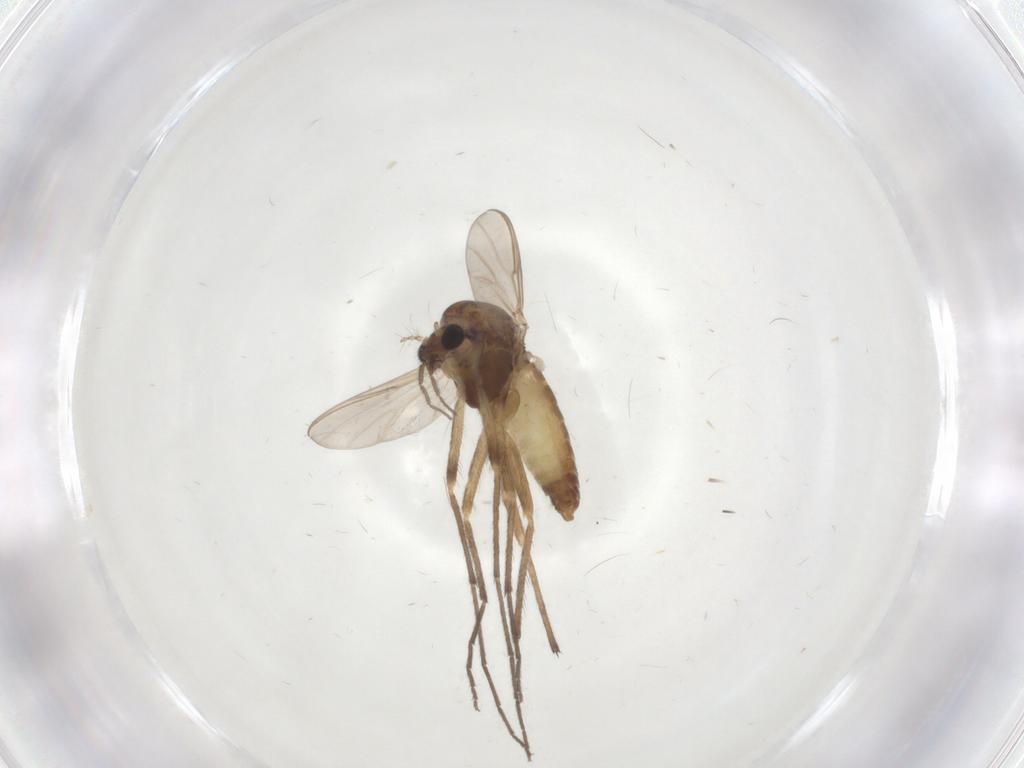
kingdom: Animalia
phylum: Arthropoda
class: Insecta
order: Diptera
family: Chironomidae
